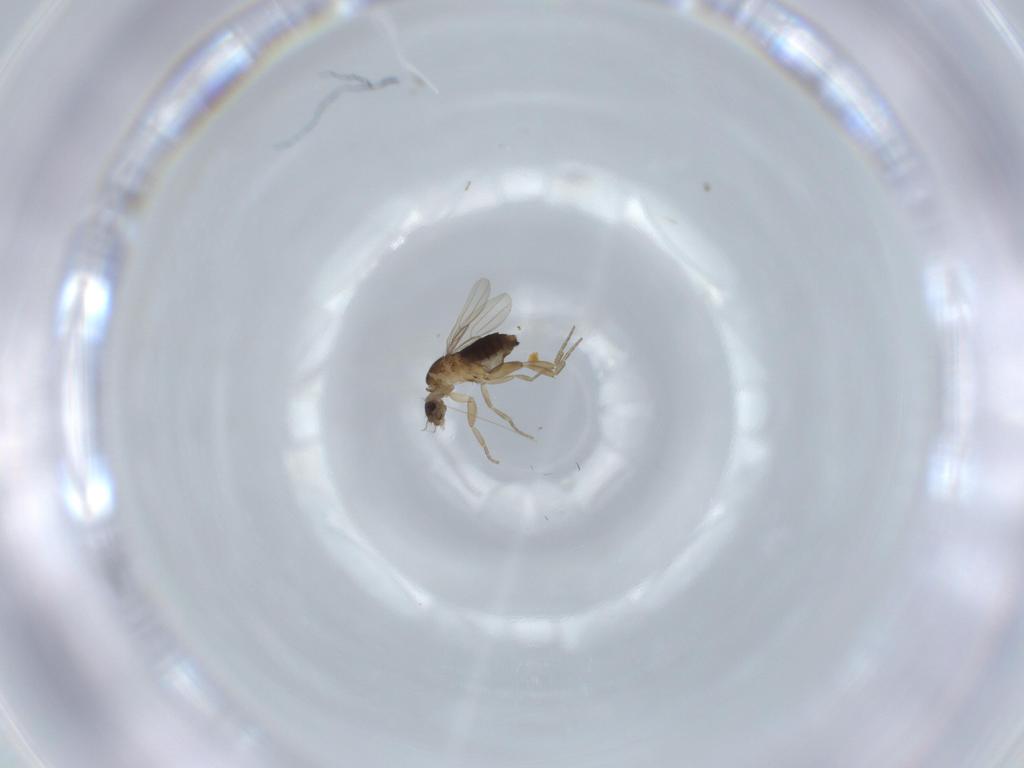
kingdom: Animalia
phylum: Arthropoda
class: Insecta
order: Diptera
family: Phoridae
